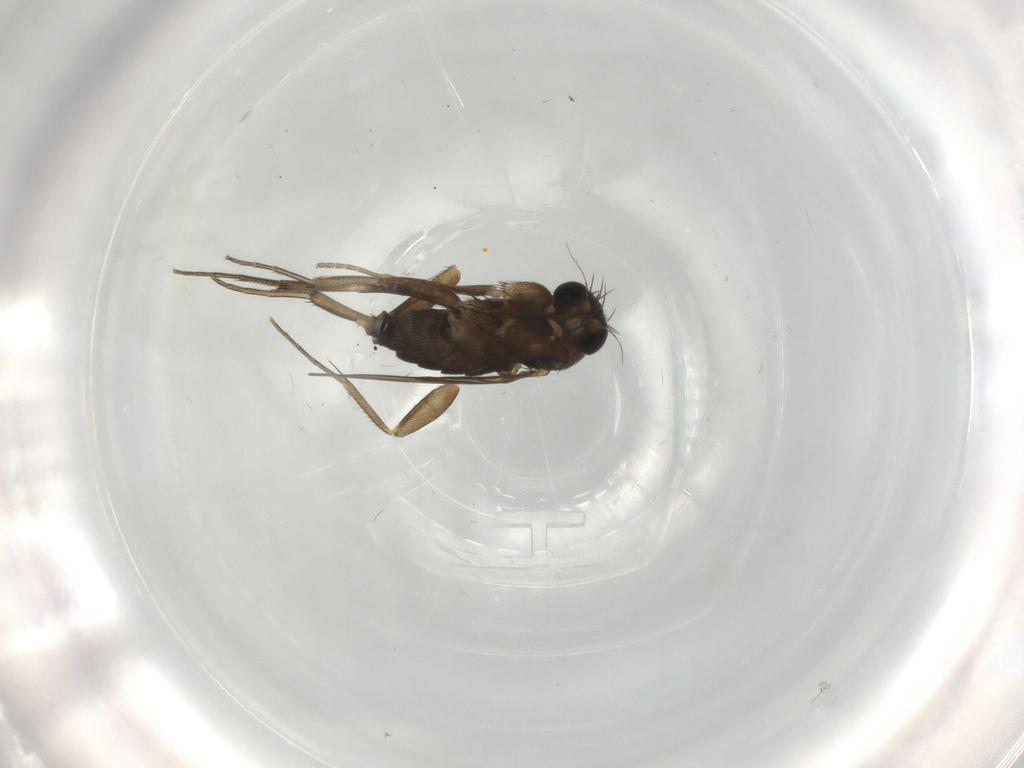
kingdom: Animalia
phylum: Arthropoda
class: Insecta
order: Diptera
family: Phoridae
